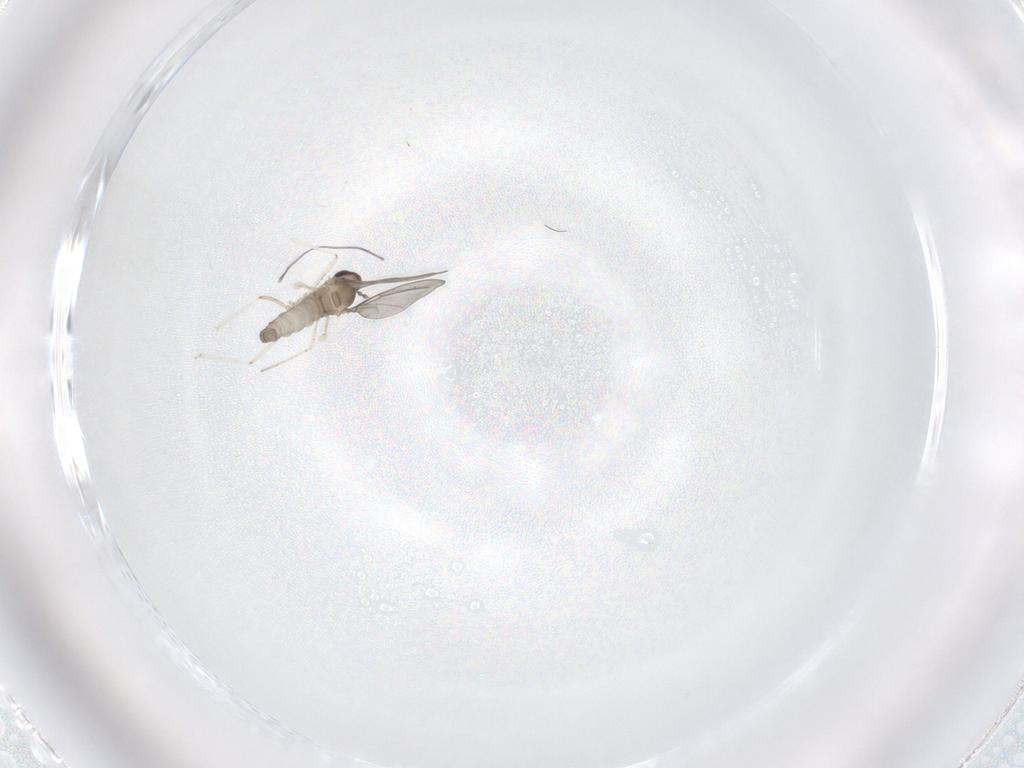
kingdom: Animalia
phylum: Arthropoda
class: Insecta
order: Diptera
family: Cecidomyiidae
